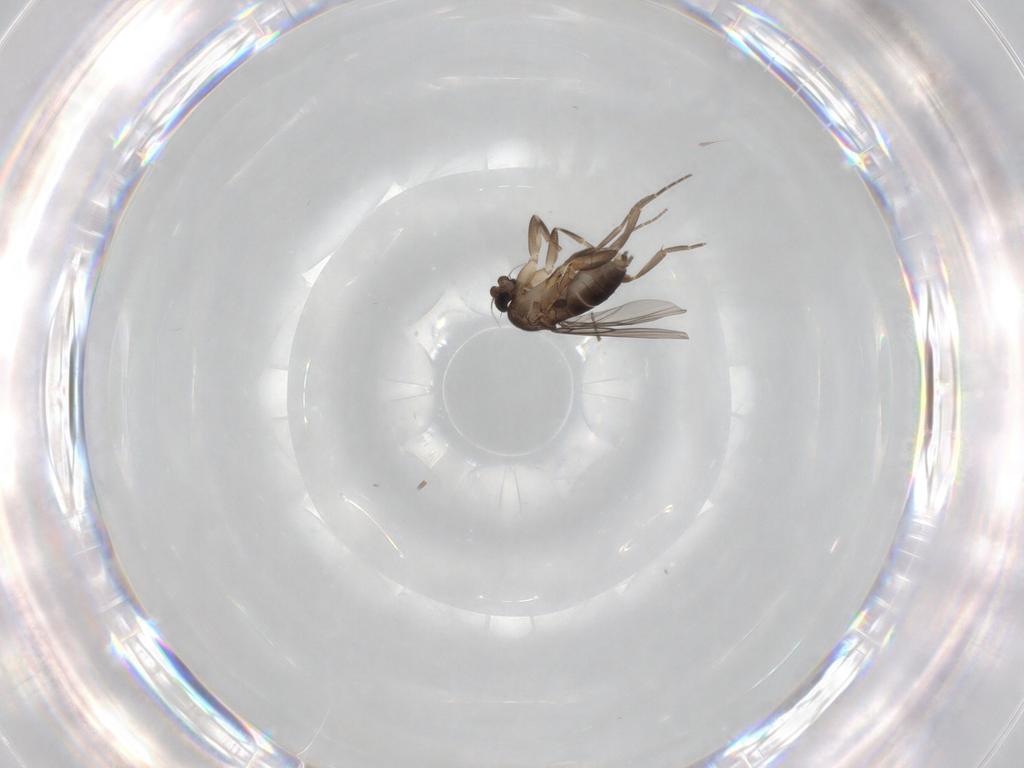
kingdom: Animalia
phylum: Arthropoda
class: Insecta
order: Diptera
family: Phoridae
